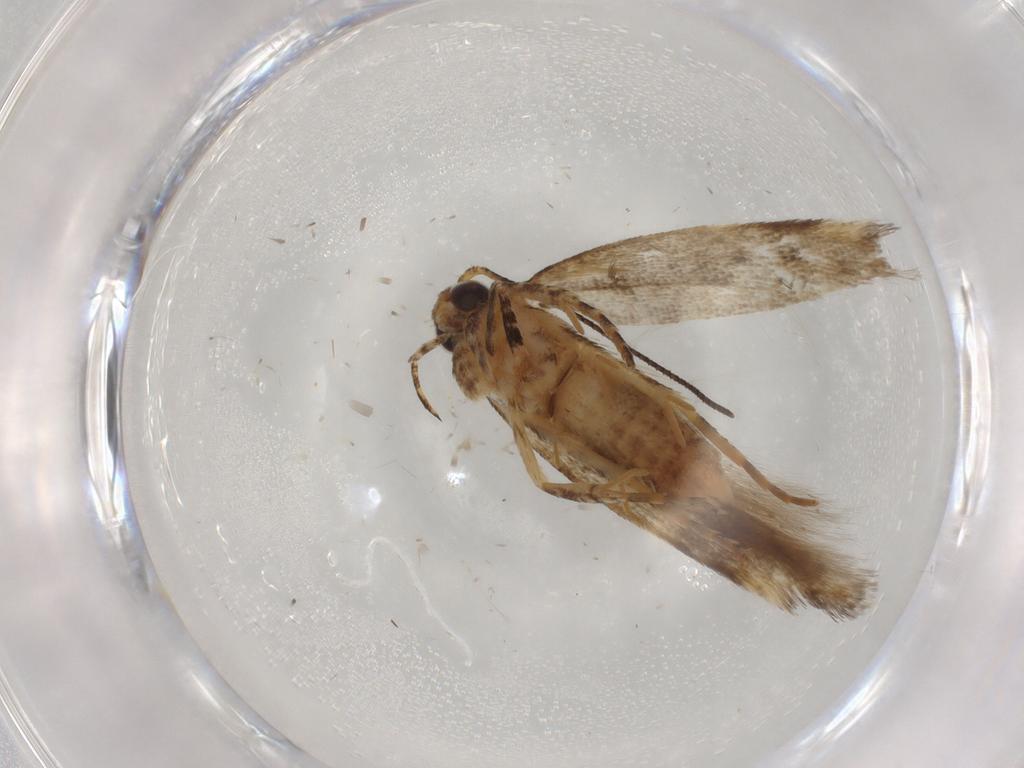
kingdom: Animalia
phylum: Arthropoda
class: Insecta
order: Lepidoptera
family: Gelechiidae
